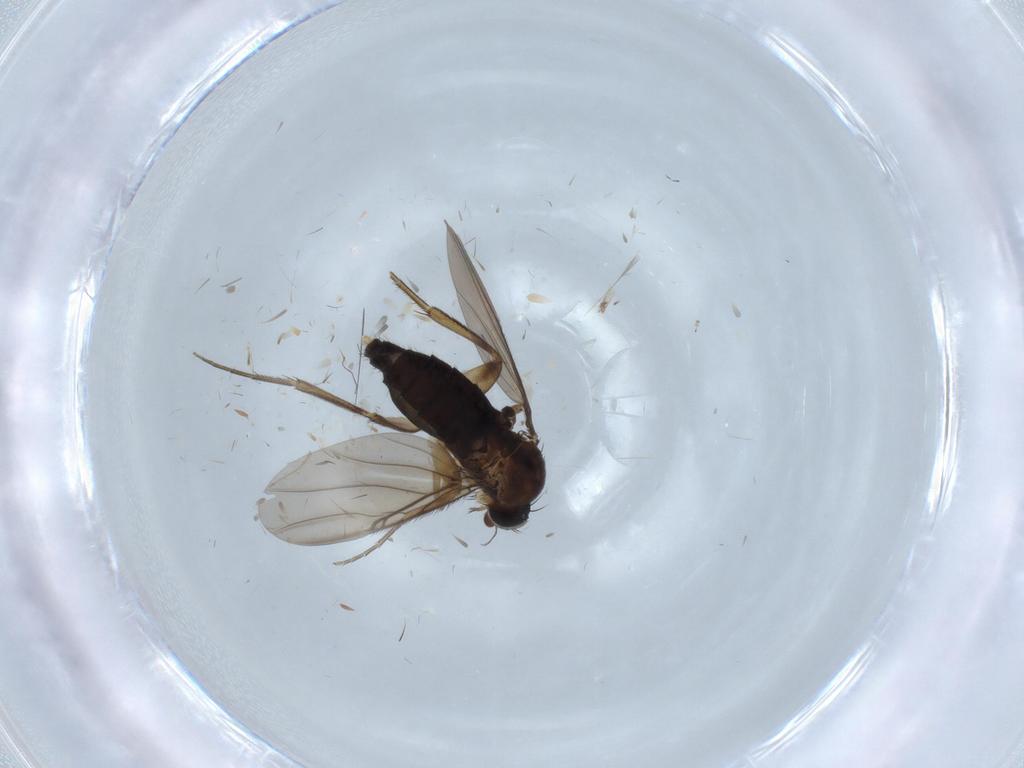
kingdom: Animalia
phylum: Arthropoda
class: Insecta
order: Diptera
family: Phoridae
